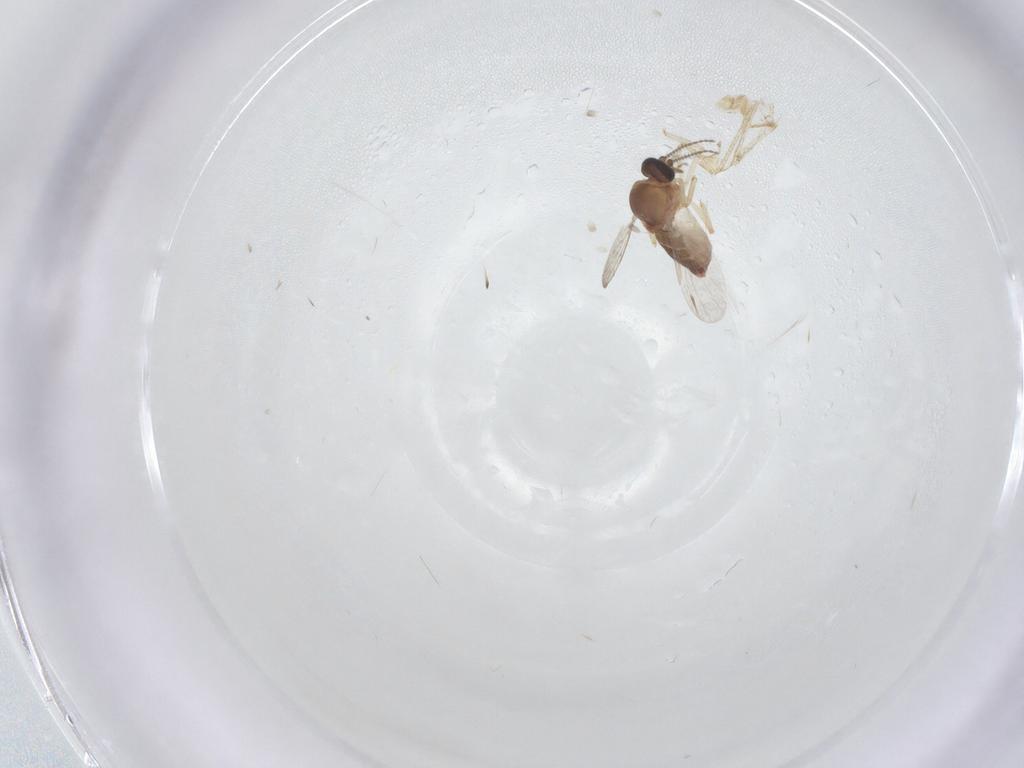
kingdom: Animalia
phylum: Arthropoda
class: Insecta
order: Diptera
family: Ceratopogonidae
